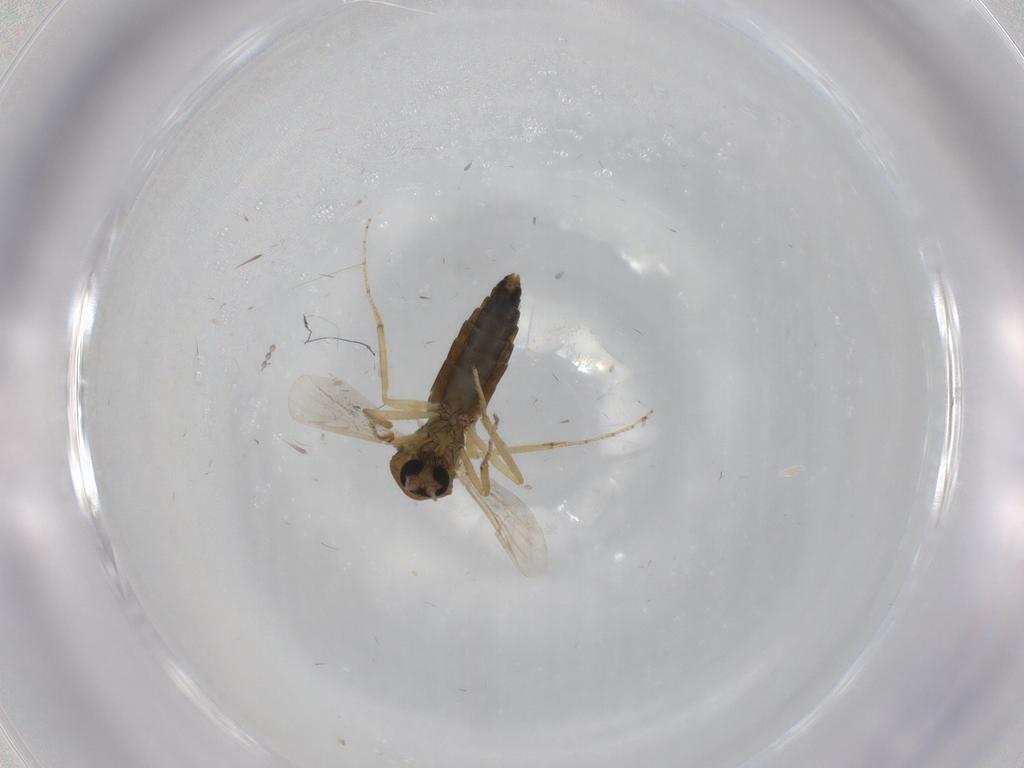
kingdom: Animalia
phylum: Arthropoda
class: Insecta
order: Diptera
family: Ceratopogonidae
